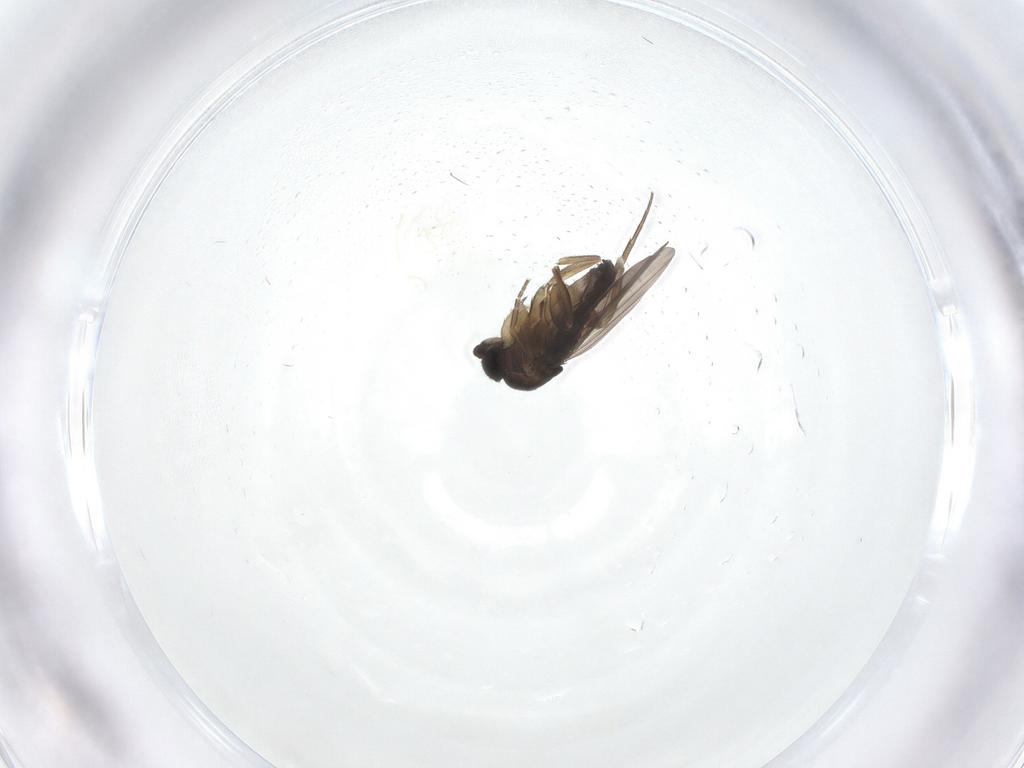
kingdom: Animalia
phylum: Arthropoda
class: Insecta
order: Diptera
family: Phoridae
